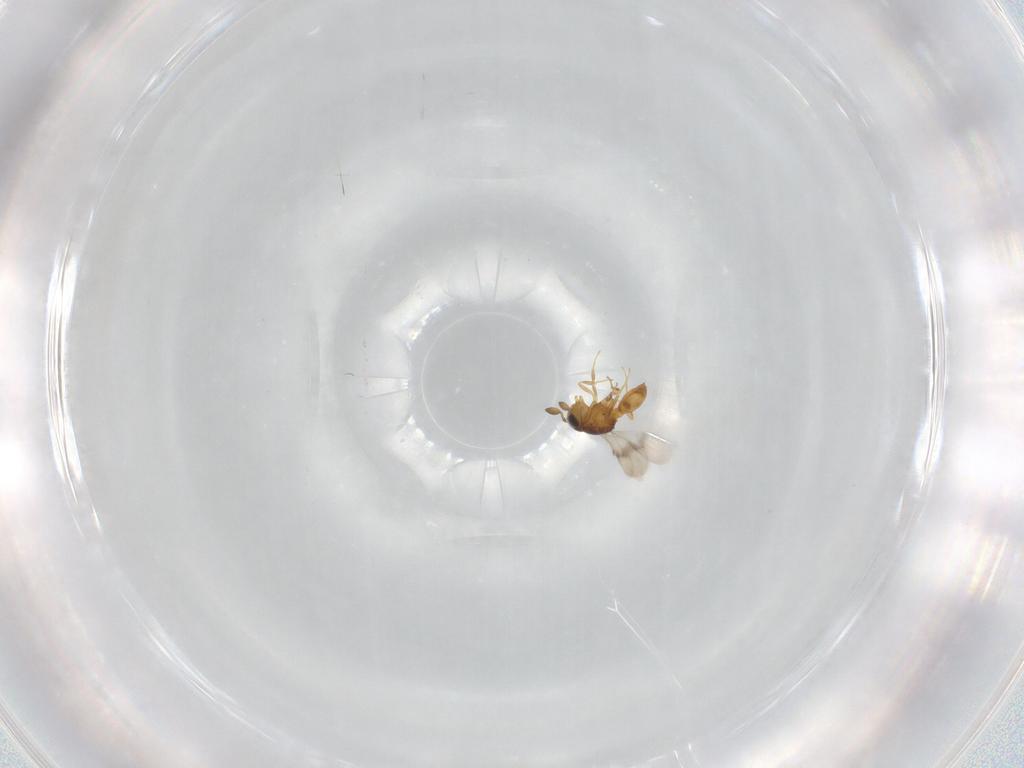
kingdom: Animalia
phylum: Arthropoda
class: Insecta
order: Hymenoptera
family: Scelionidae
